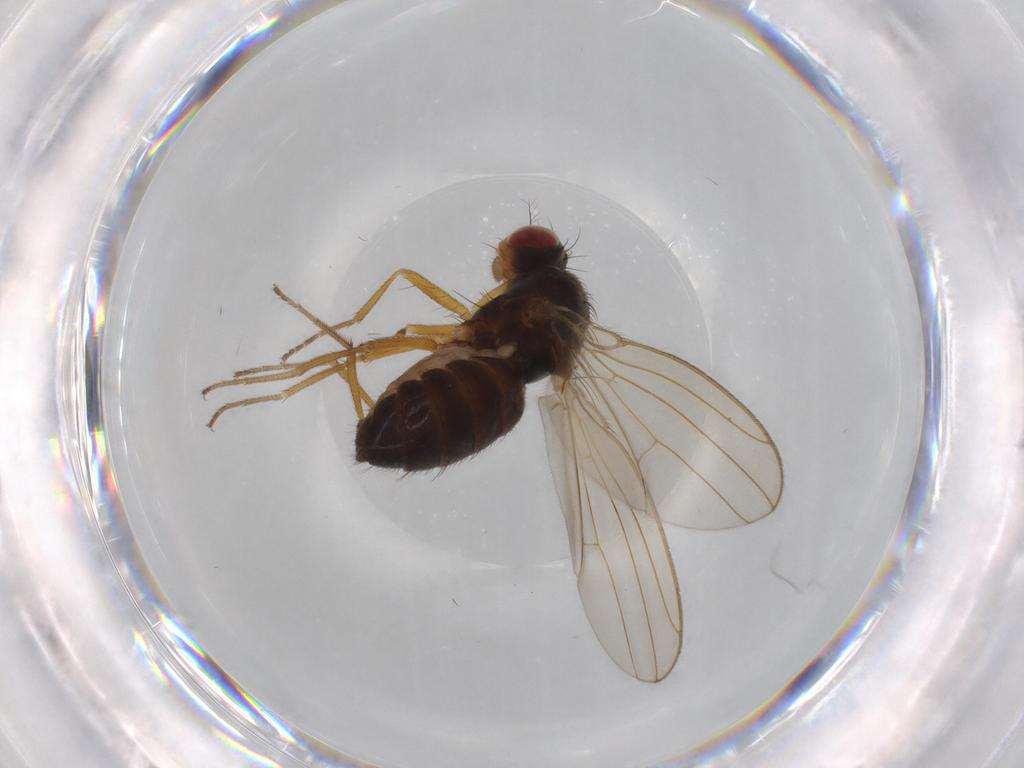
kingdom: Animalia
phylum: Arthropoda
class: Insecta
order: Diptera
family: Drosophilidae
